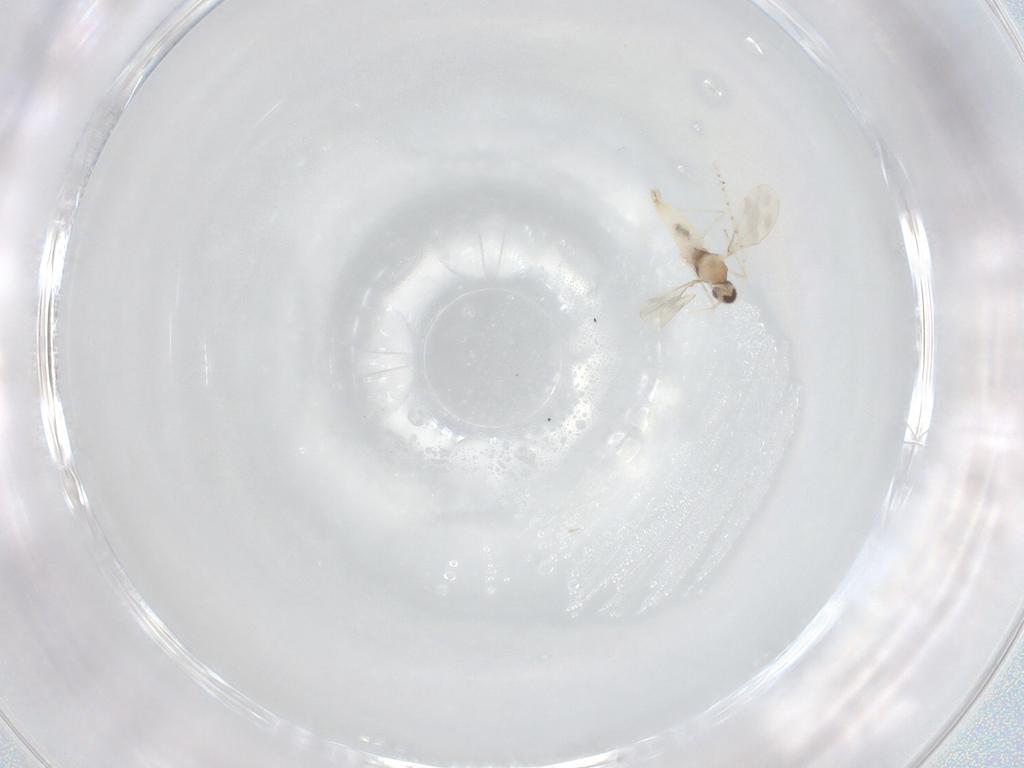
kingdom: Animalia
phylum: Arthropoda
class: Insecta
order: Diptera
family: Cecidomyiidae
